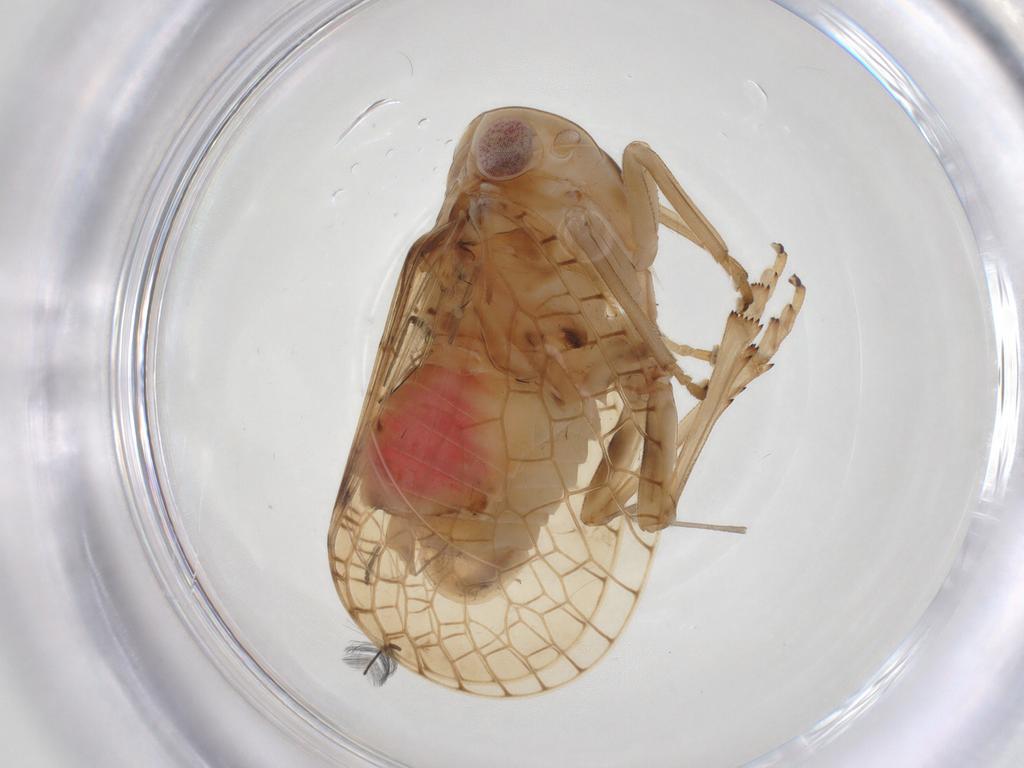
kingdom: Animalia
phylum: Arthropoda
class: Insecta
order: Hemiptera
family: Tropiduchidae
